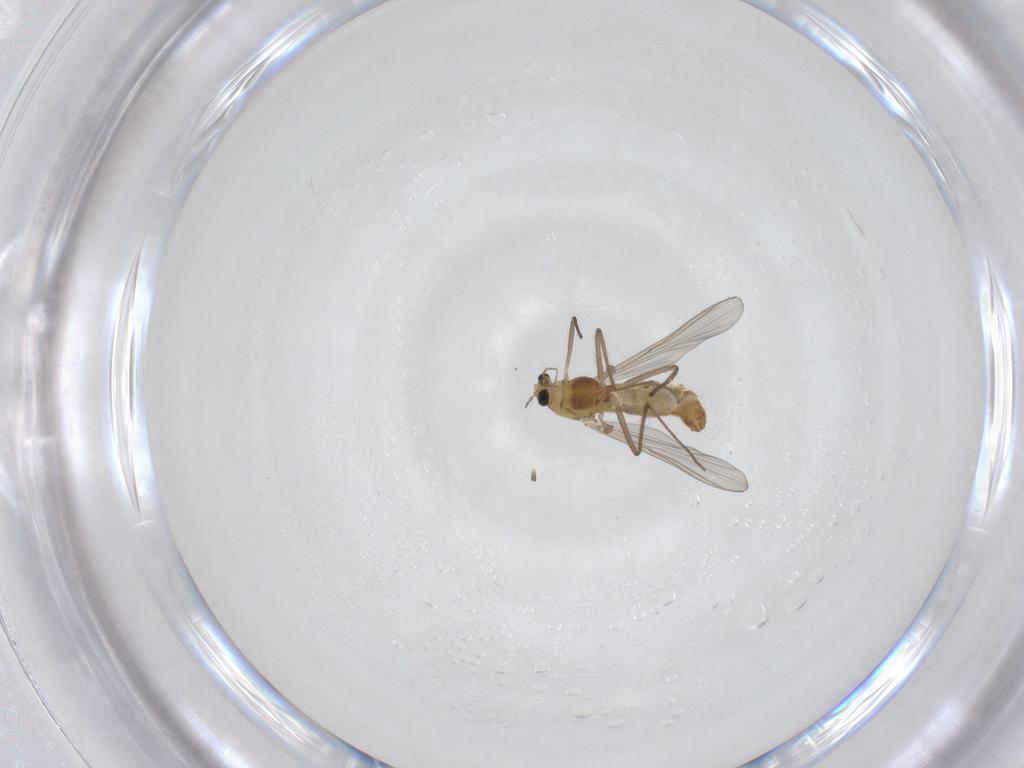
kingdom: Animalia
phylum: Arthropoda
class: Insecta
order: Diptera
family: Chironomidae
